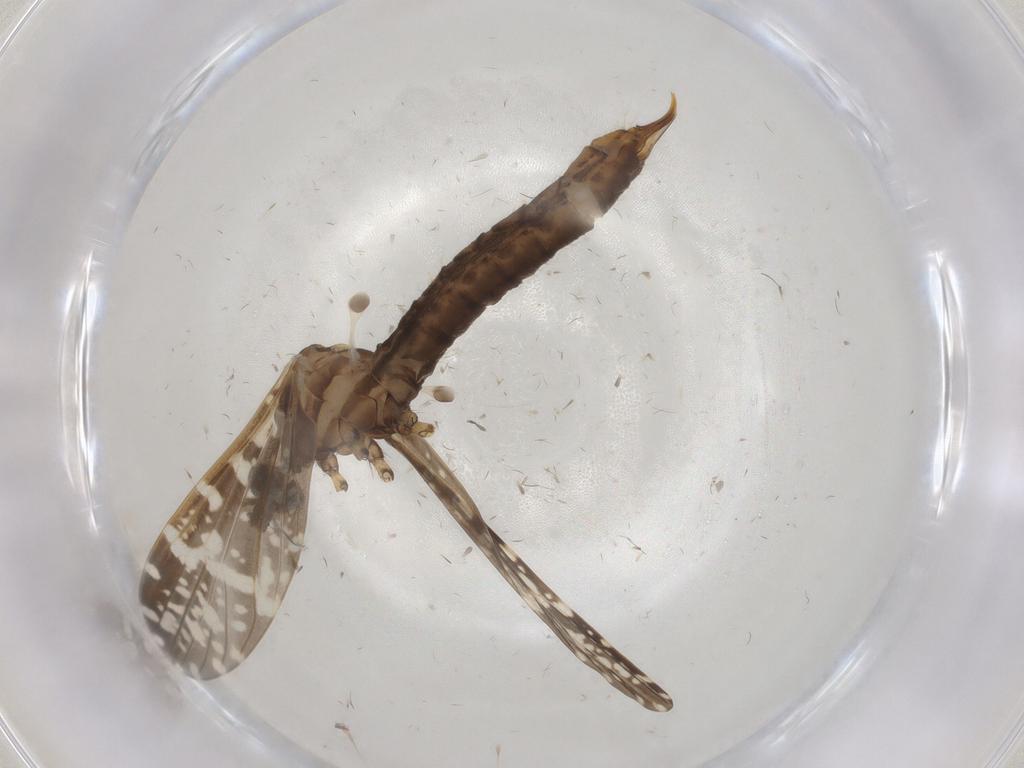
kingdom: Animalia
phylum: Arthropoda
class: Insecta
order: Diptera
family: Limoniidae
